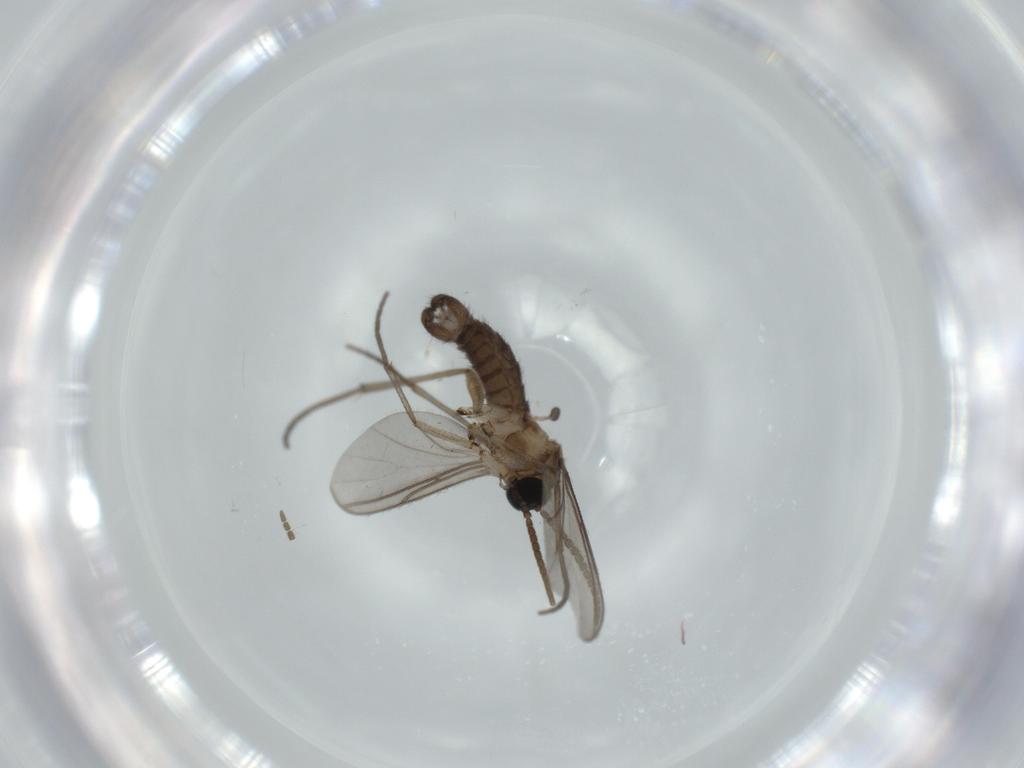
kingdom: Animalia
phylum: Arthropoda
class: Insecta
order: Diptera
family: Sciaridae
